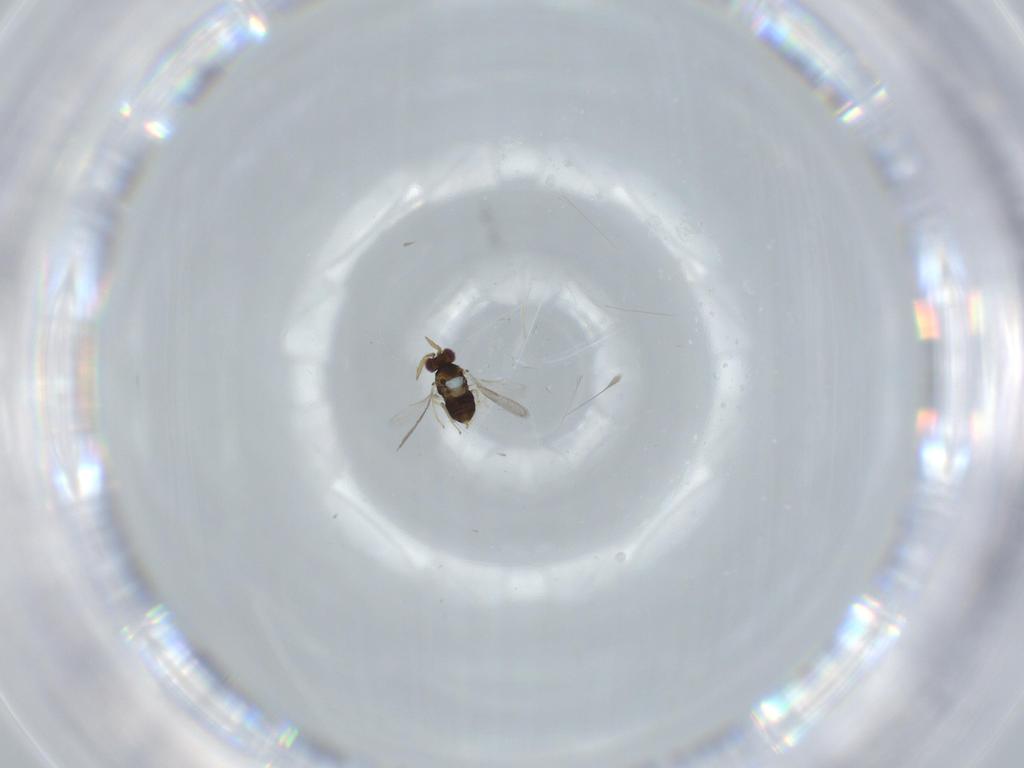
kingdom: Animalia
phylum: Arthropoda
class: Insecta
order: Hymenoptera
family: Aphelinidae
